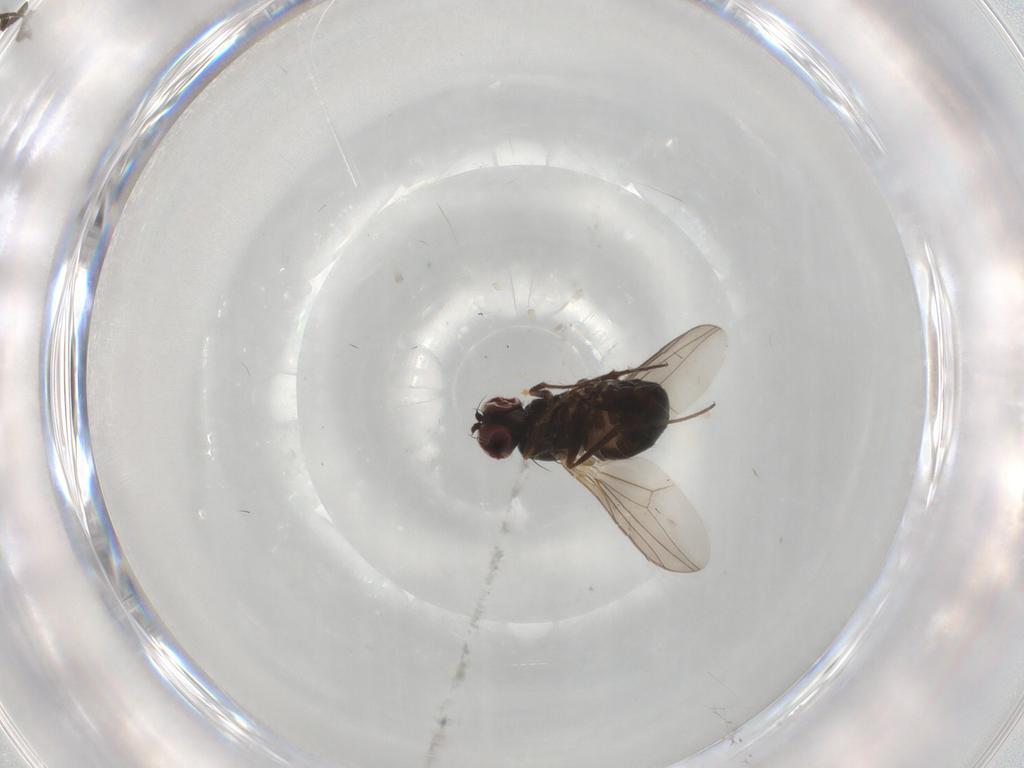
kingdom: Animalia
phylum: Arthropoda
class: Insecta
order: Diptera
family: Dolichopodidae
